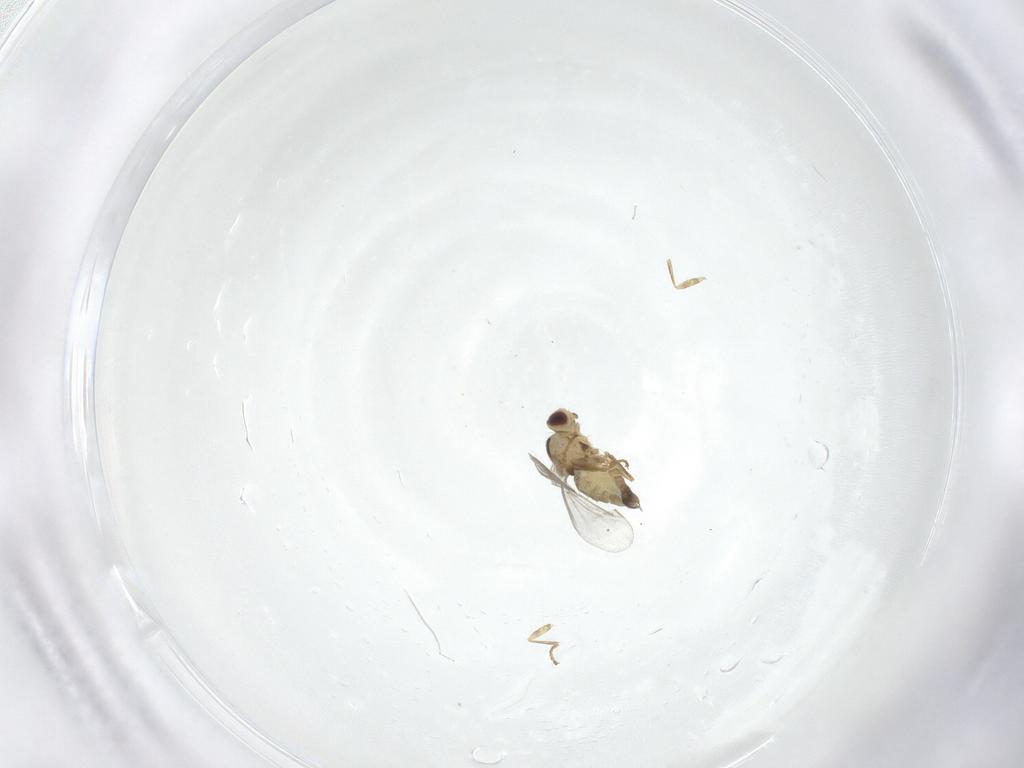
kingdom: Animalia
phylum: Arthropoda
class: Insecta
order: Diptera
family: Agromyzidae
